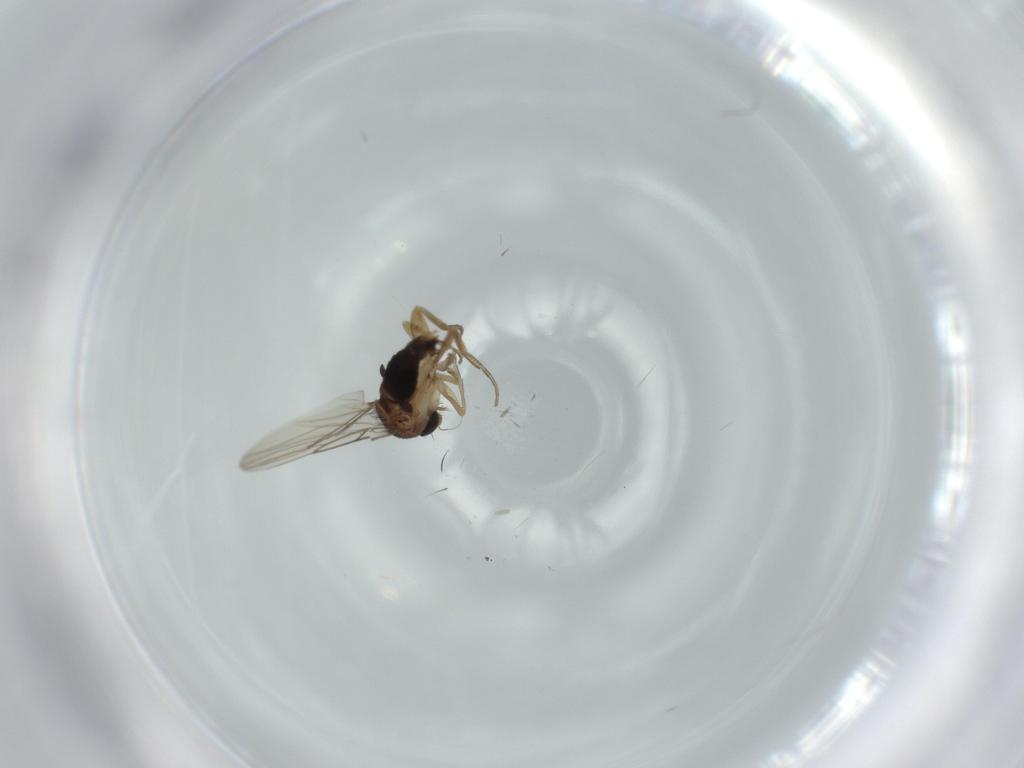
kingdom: Animalia
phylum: Arthropoda
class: Insecta
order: Diptera
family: Phoridae
